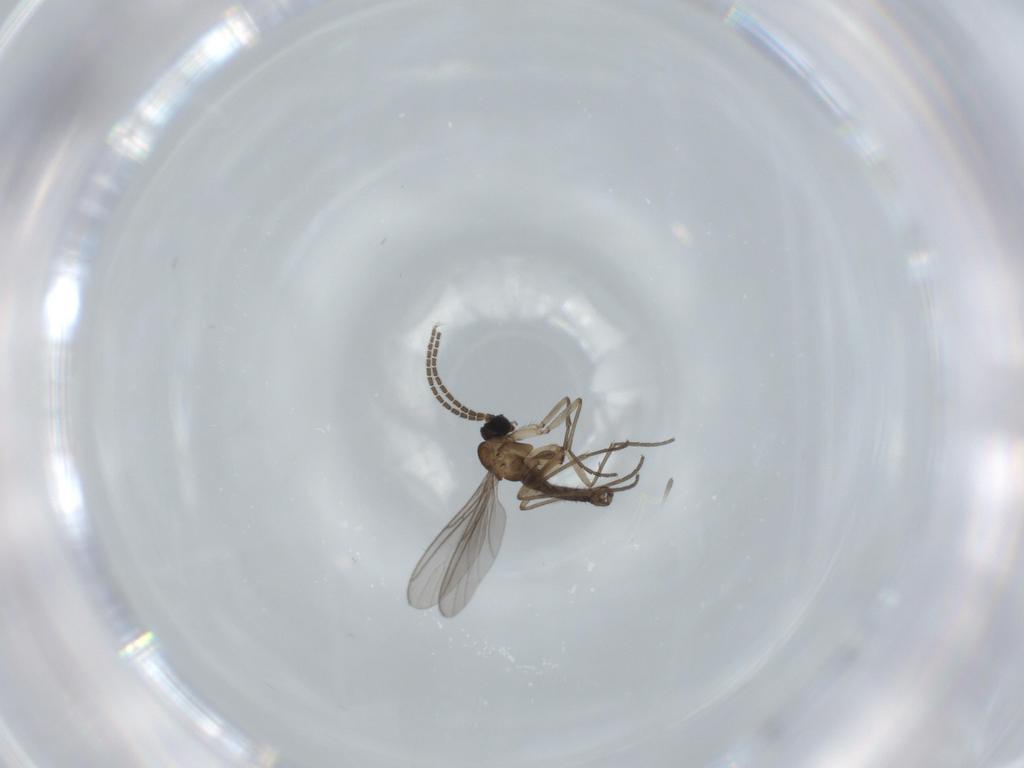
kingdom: Animalia
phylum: Arthropoda
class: Insecta
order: Diptera
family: Sciaridae
